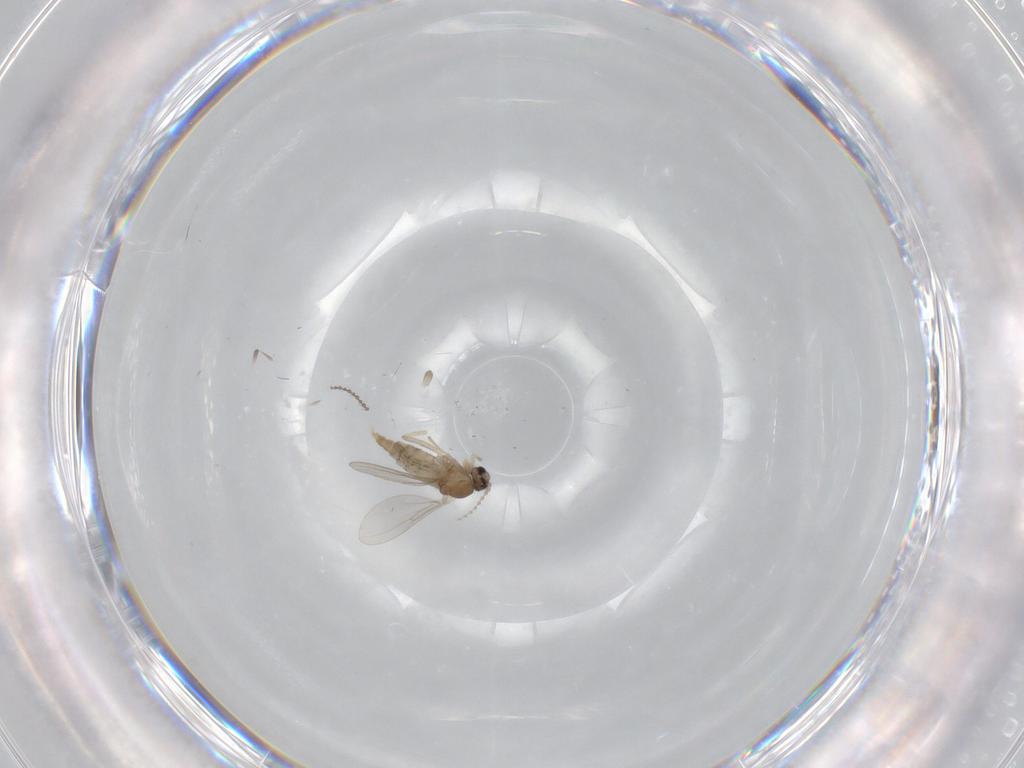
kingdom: Animalia
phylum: Arthropoda
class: Insecta
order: Diptera
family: Cecidomyiidae
